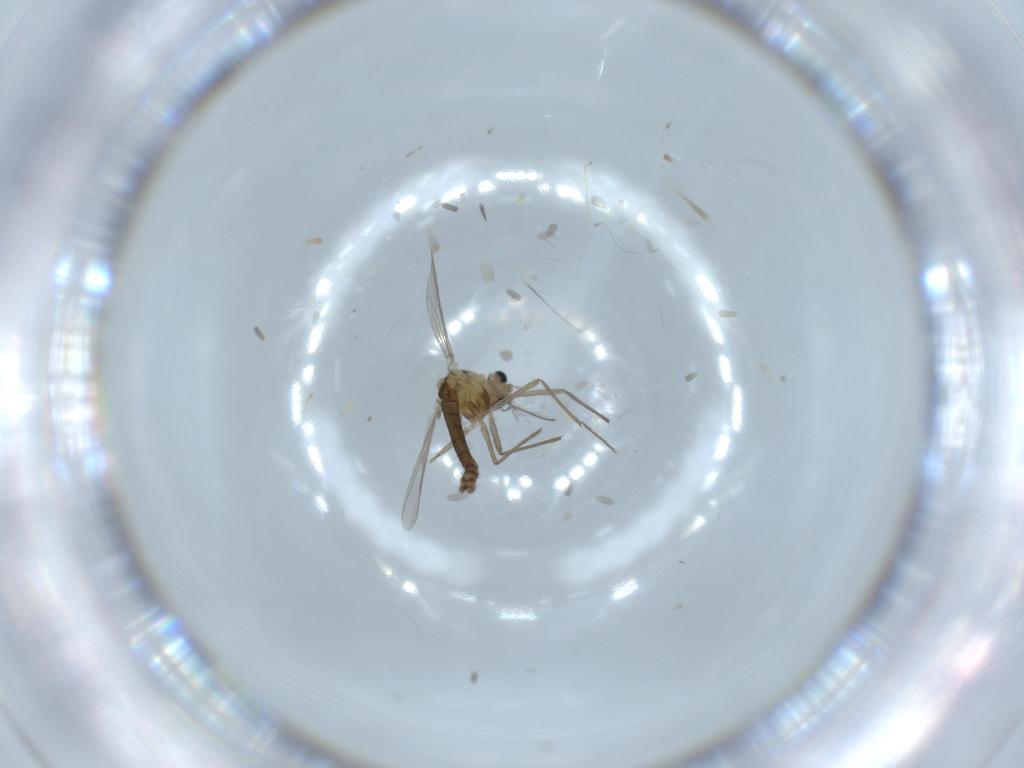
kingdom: Animalia
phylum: Arthropoda
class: Insecta
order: Diptera
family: Chironomidae
